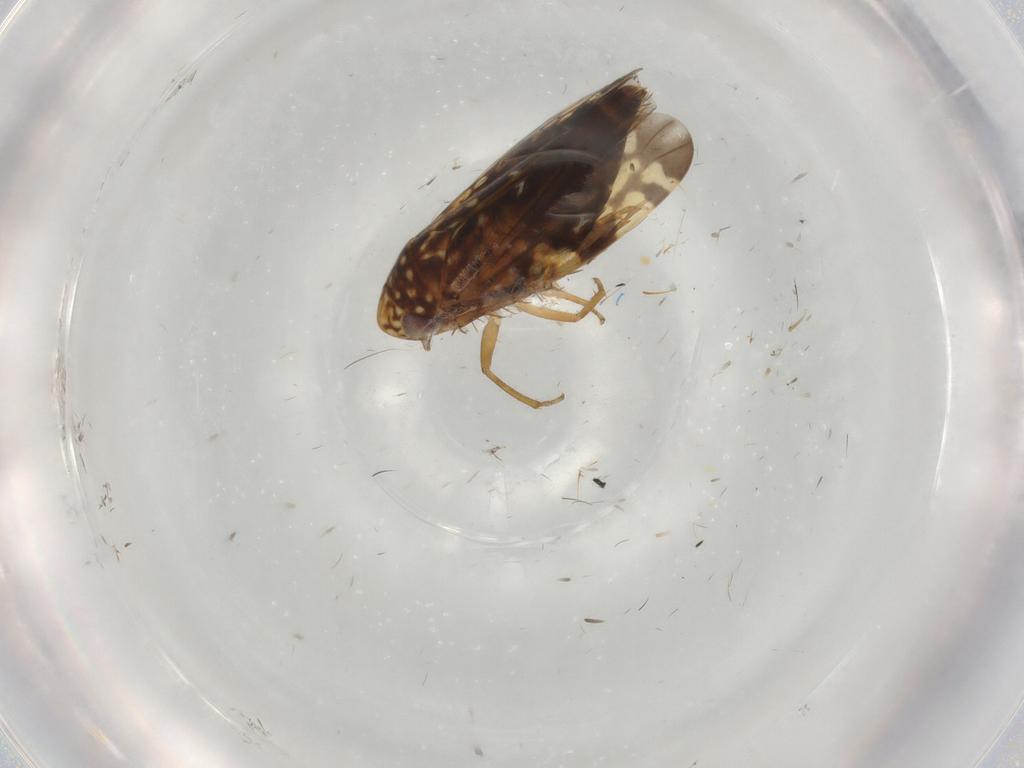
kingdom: Animalia
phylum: Arthropoda
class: Insecta
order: Hemiptera
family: Cicadellidae
